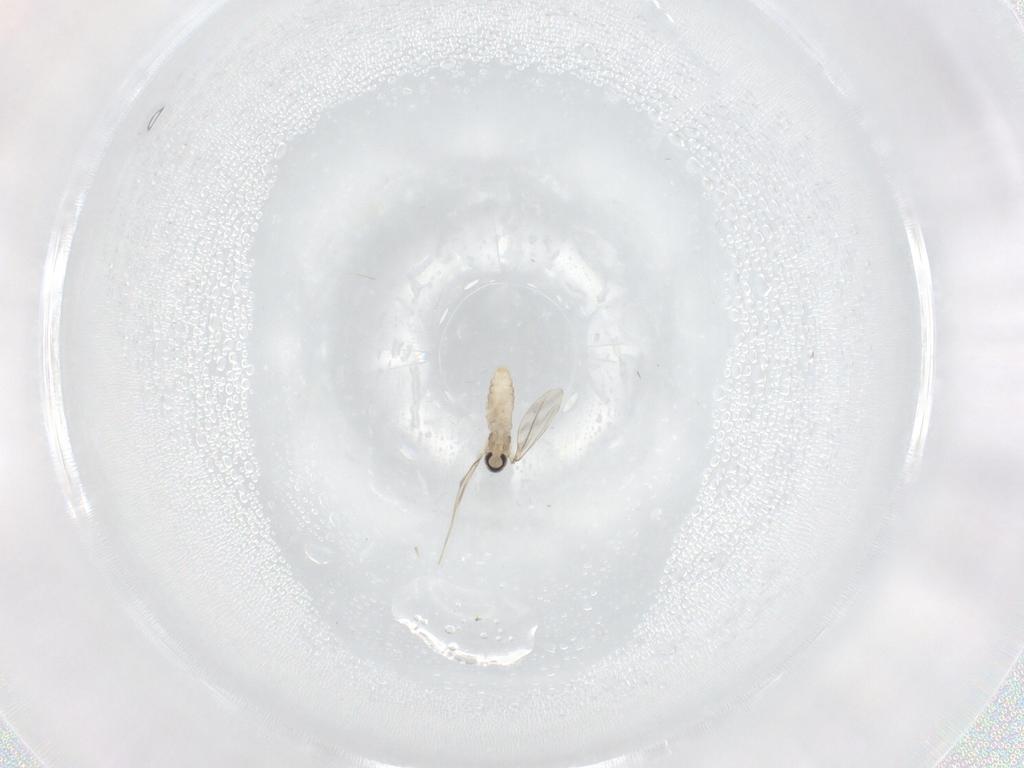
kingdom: Animalia
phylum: Arthropoda
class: Insecta
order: Diptera
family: Cecidomyiidae
